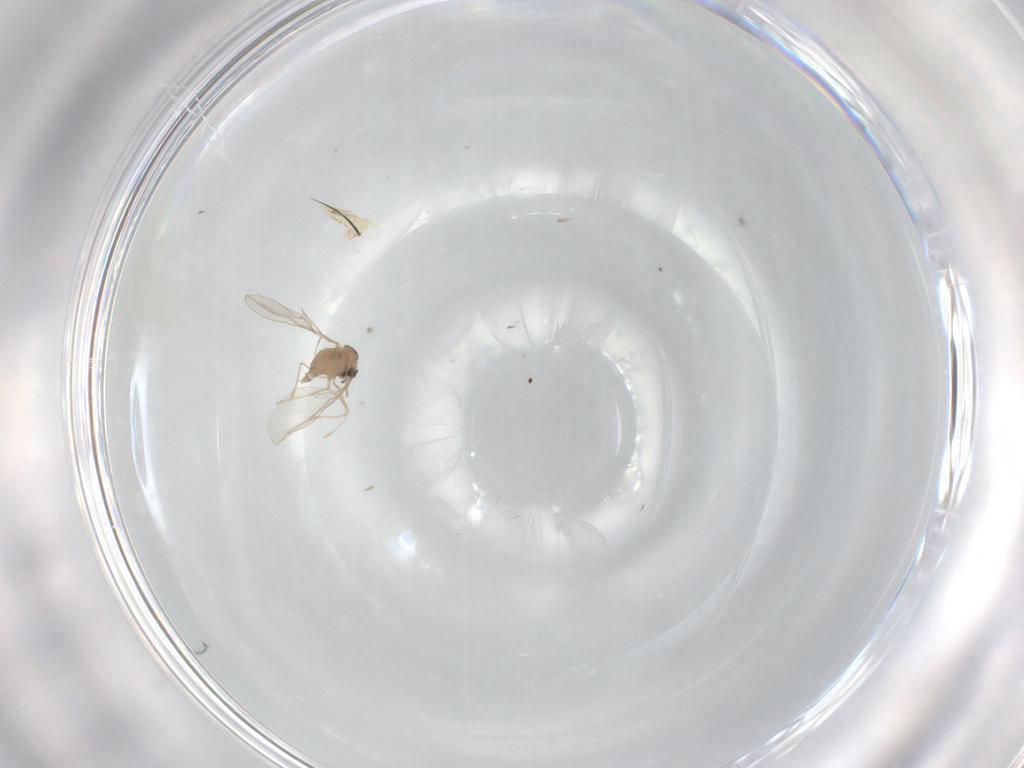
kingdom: Animalia
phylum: Arthropoda
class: Insecta
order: Diptera
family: Cecidomyiidae
